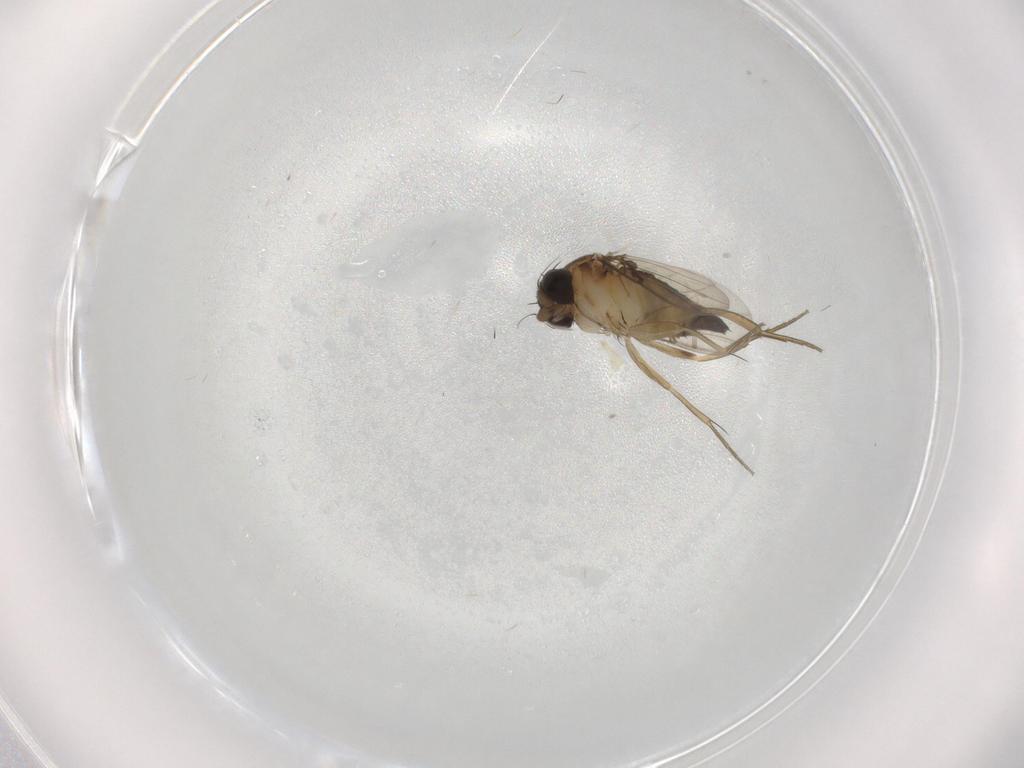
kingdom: Animalia
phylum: Arthropoda
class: Insecta
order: Diptera
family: Phoridae
